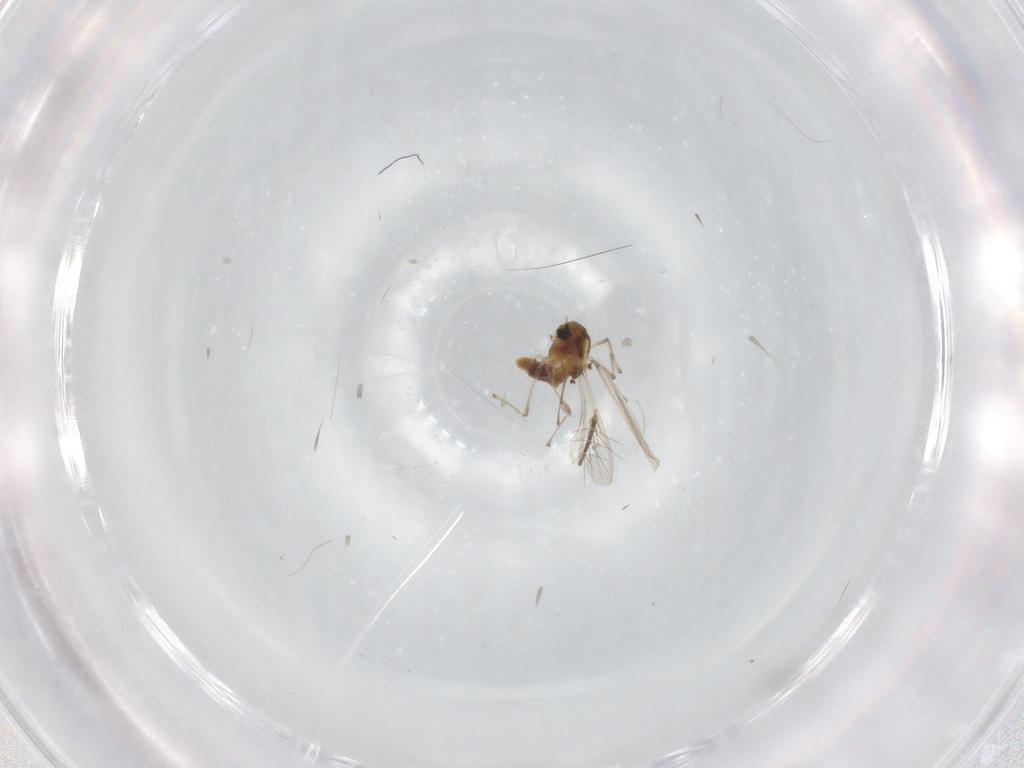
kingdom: Animalia
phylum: Arthropoda
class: Insecta
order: Diptera
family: Chironomidae
